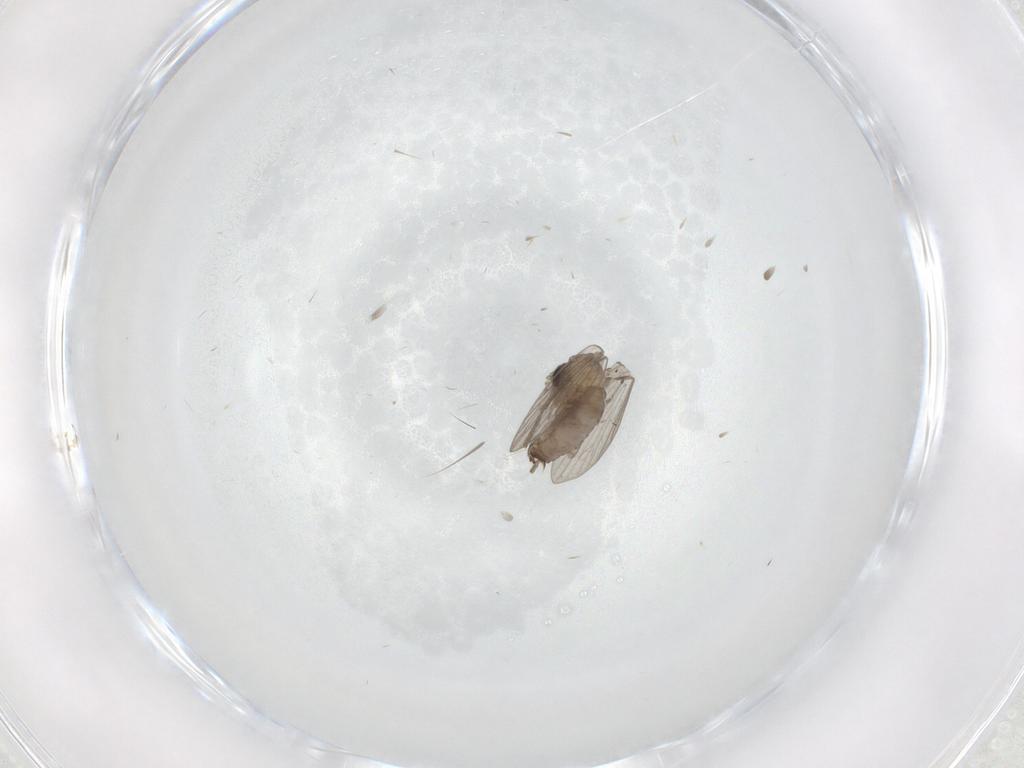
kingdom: Animalia
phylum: Arthropoda
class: Insecta
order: Diptera
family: Psychodidae
